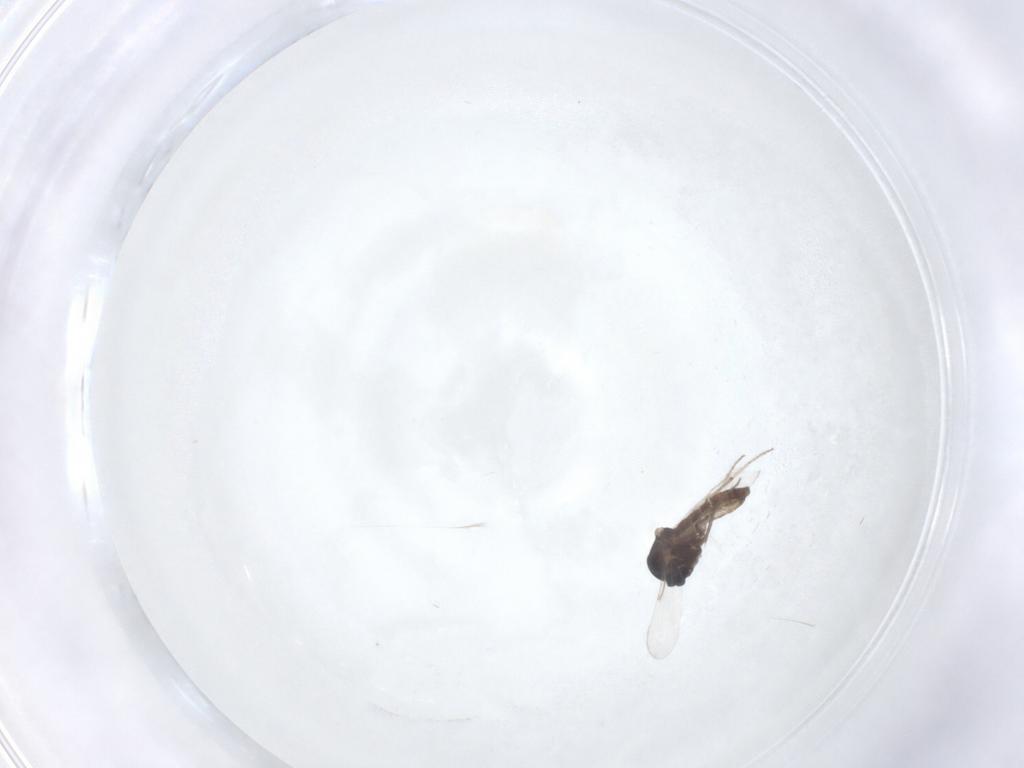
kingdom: Animalia
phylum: Arthropoda
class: Insecta
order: Diptera
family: Ceratopogonidae
